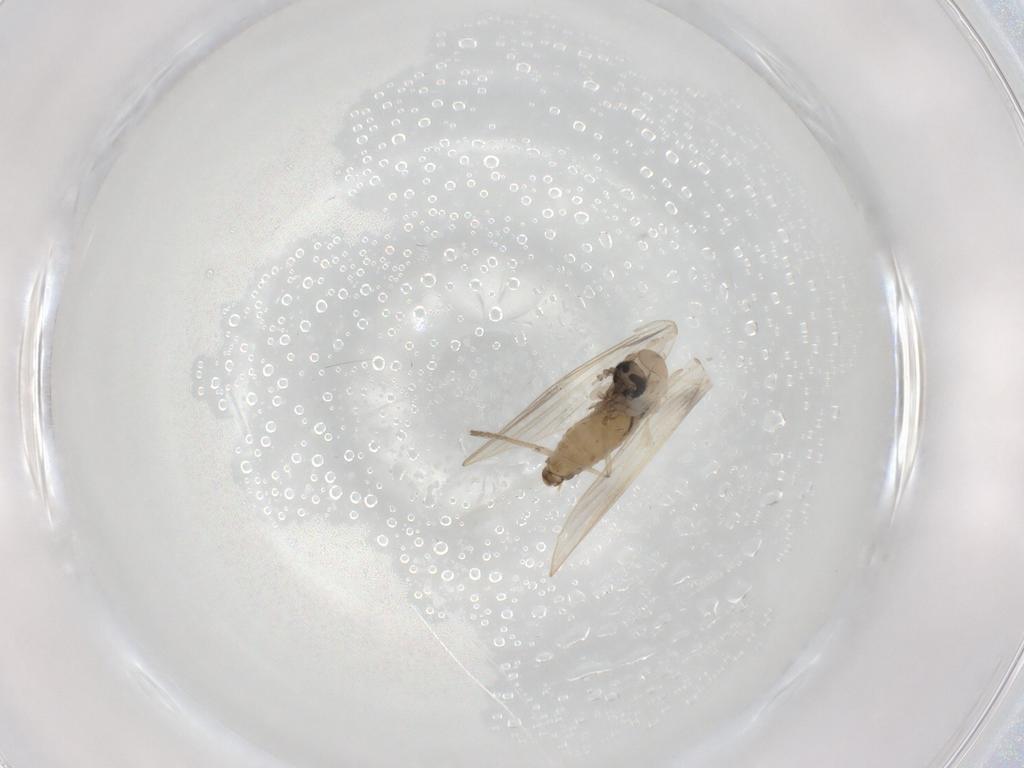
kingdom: Animalia
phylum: Arthropoda
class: Insecta
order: Diptera
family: Psychodidae
